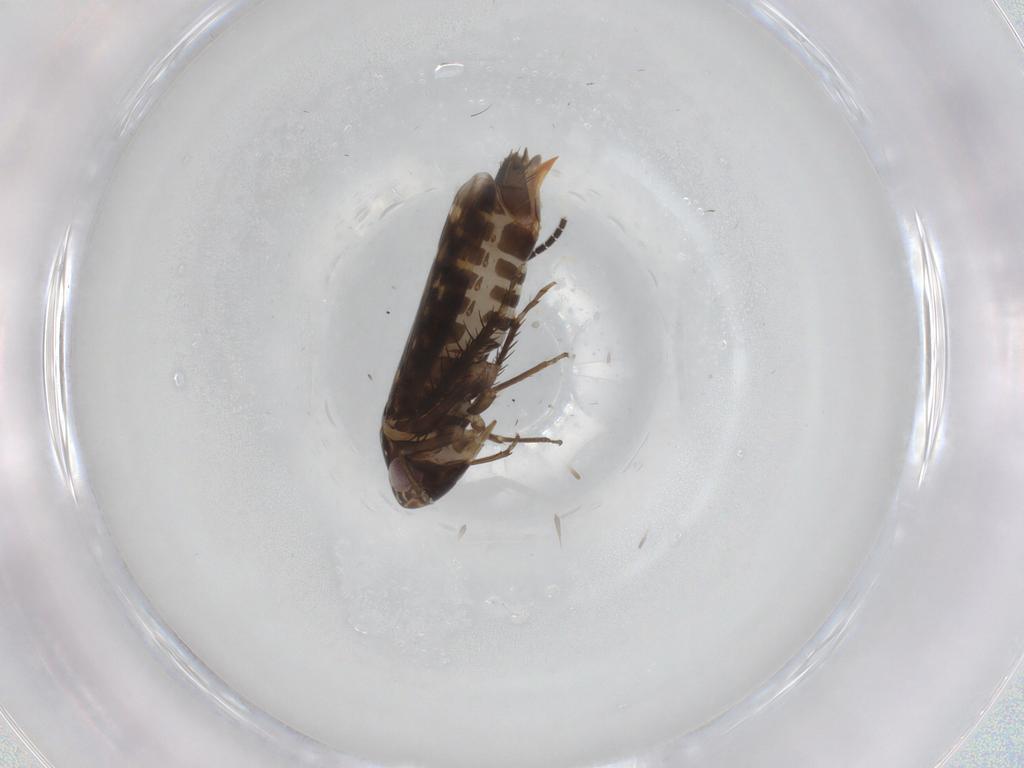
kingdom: Animalia
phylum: Arthropoda
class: Insecta
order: Hemiptera
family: Cicadellidae
